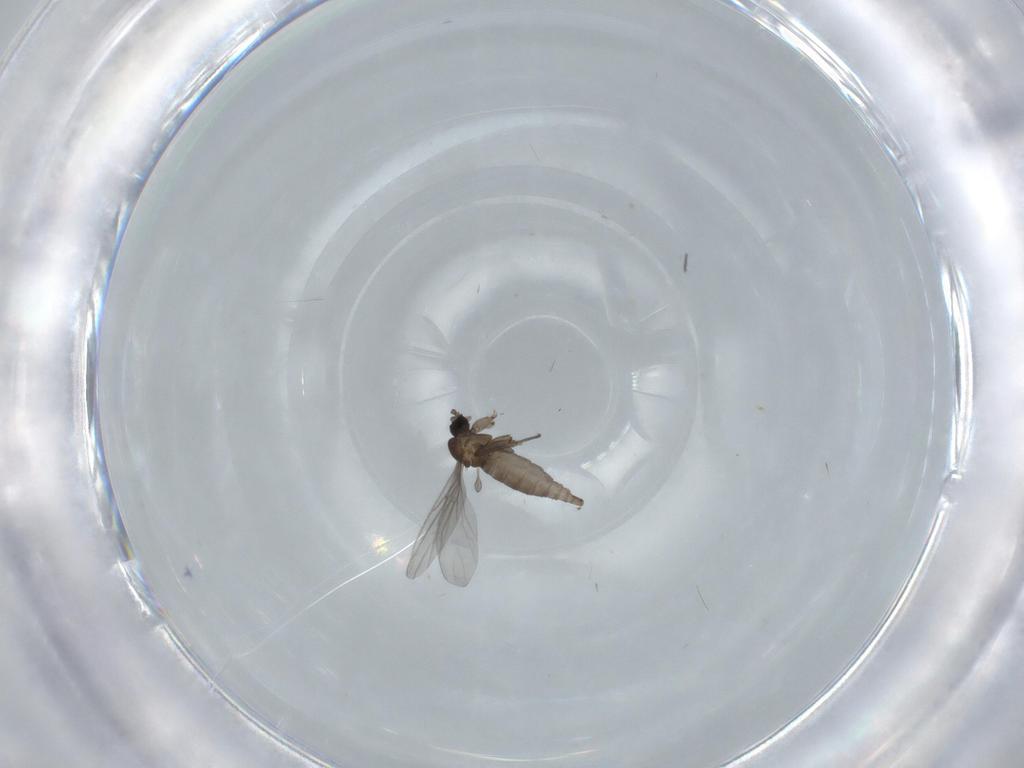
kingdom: Animalia
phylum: Arthropoda
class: Insecta
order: Diptera
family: Sciaridae
